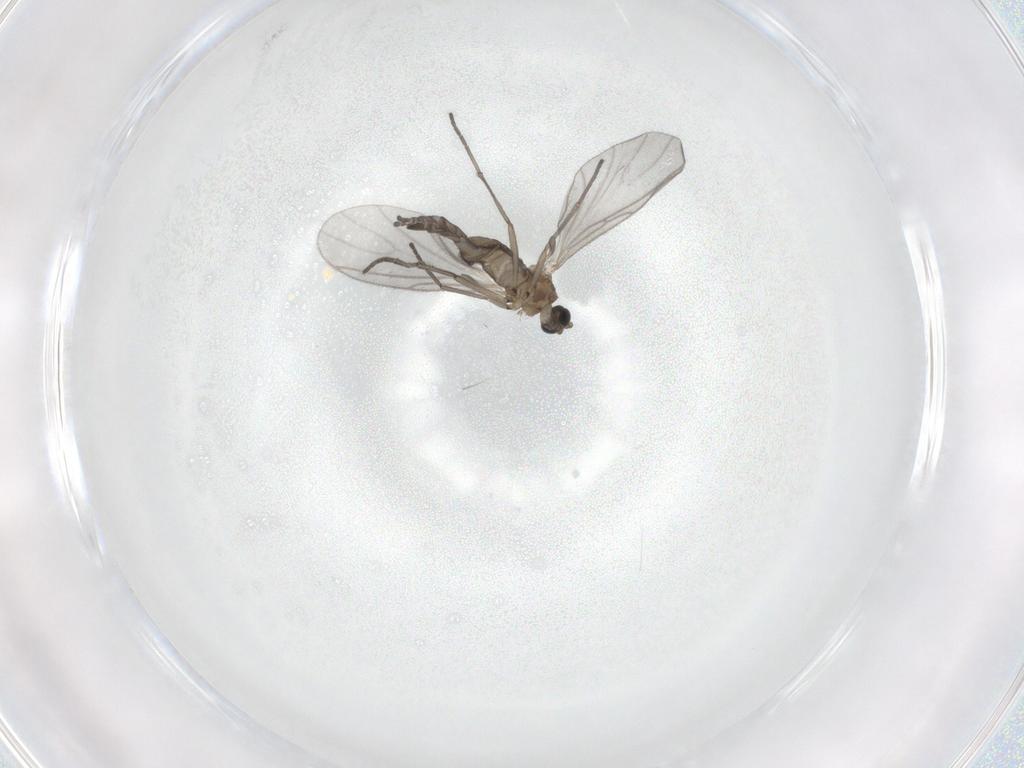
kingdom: Animalia
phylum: Arthropoda
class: Insecta
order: Diptera
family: Sciaridae
